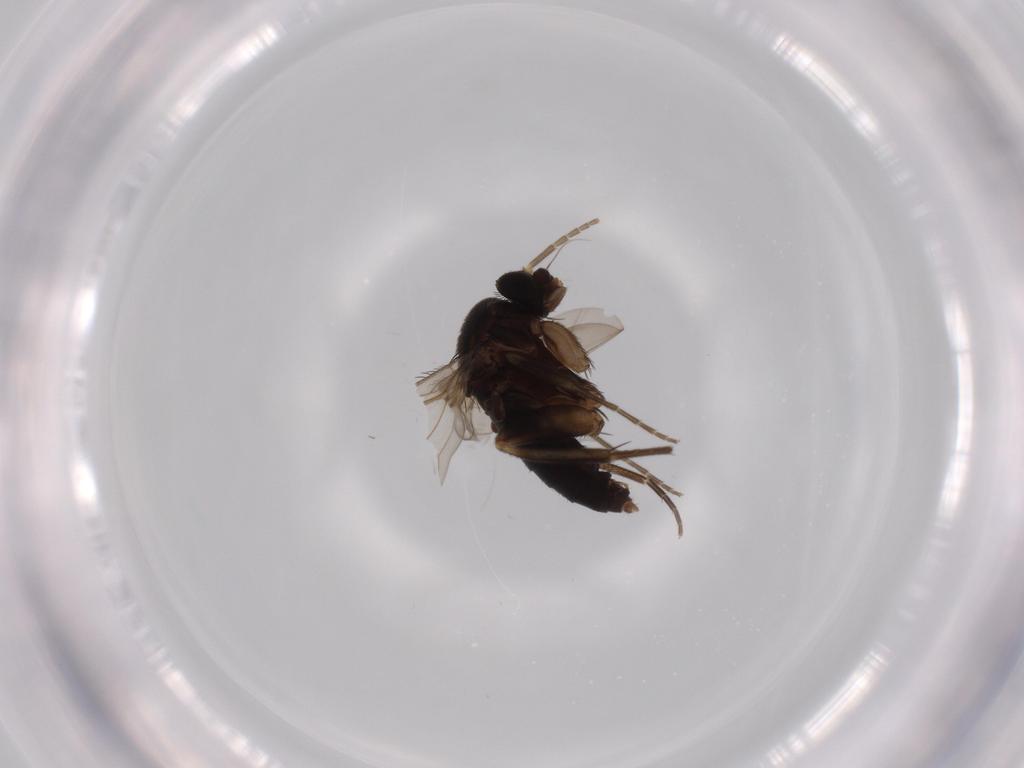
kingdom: Animalia
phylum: Arthropoda
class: Insecta
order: Diptera
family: Phoridae
